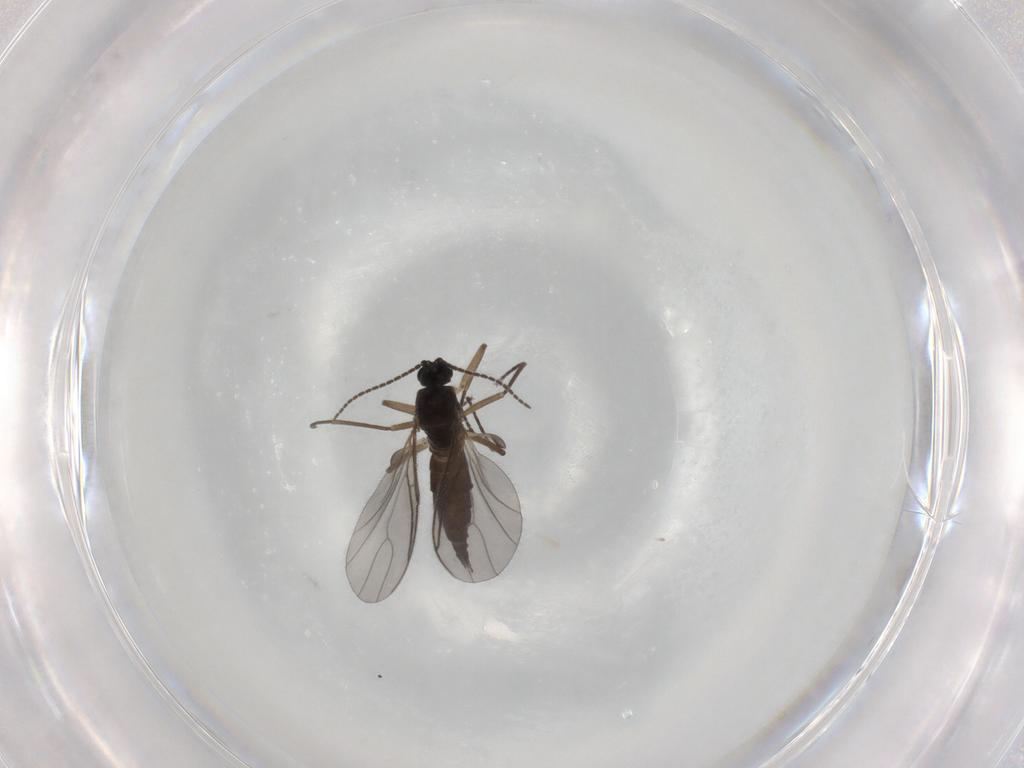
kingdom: Animalia
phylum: Arthropoda
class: Insecta
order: Diptera
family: Sciaridae
